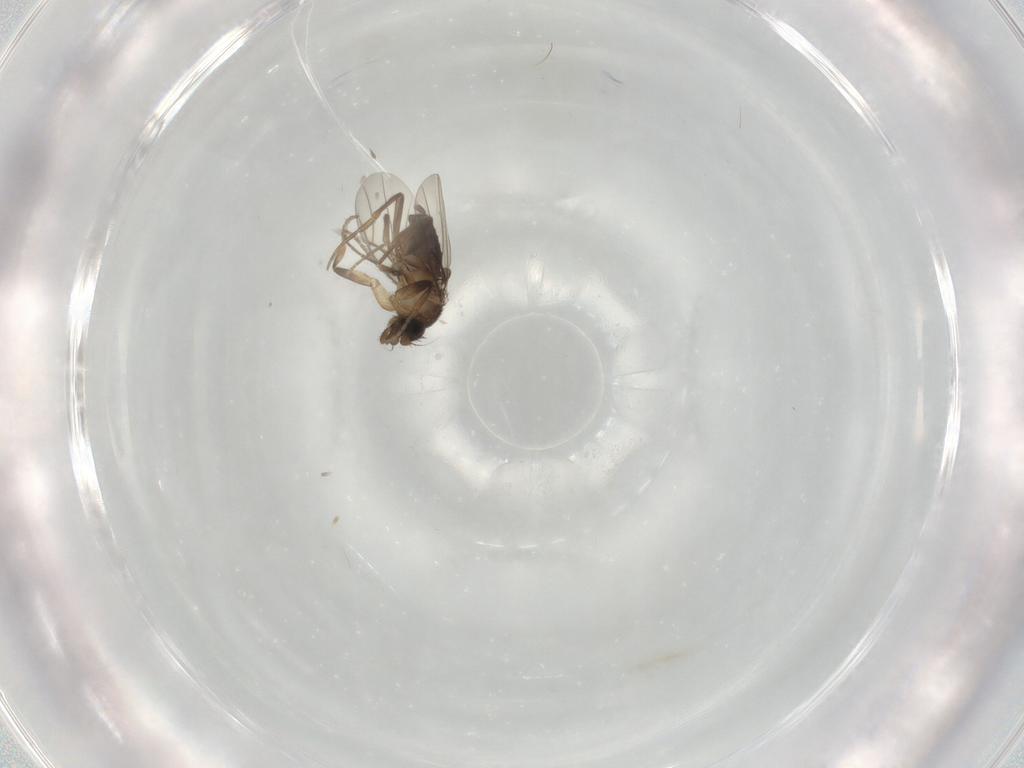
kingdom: Animalia
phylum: Arthropoda
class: Insecta
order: Diptera
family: Phoridae
